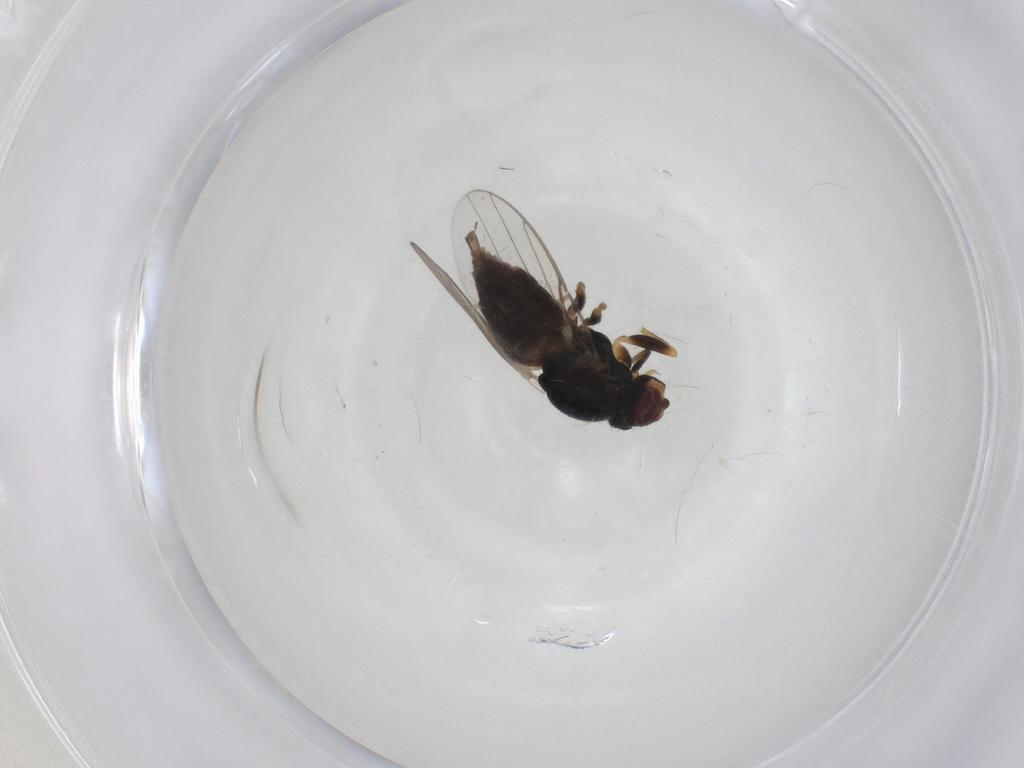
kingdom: Animalia
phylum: Arthropoda
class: Insecta
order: Diptera
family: Chloropidae
